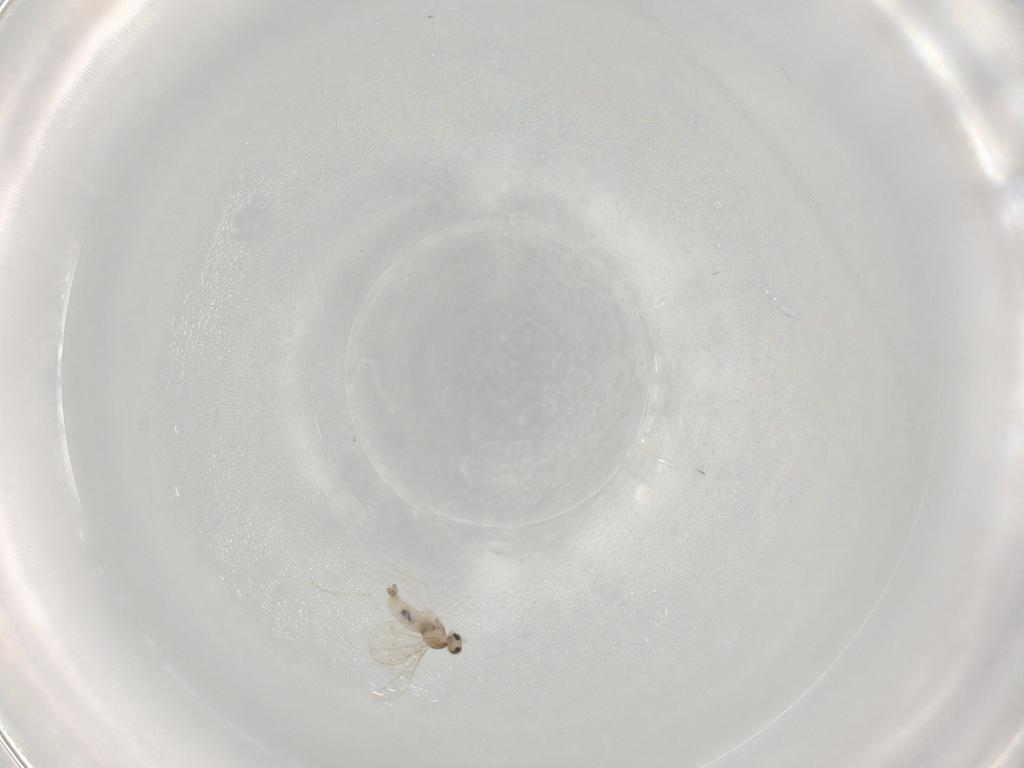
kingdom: Animalia
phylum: Arthropoda
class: Insecta
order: Diptera
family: Cecidomyiidae
